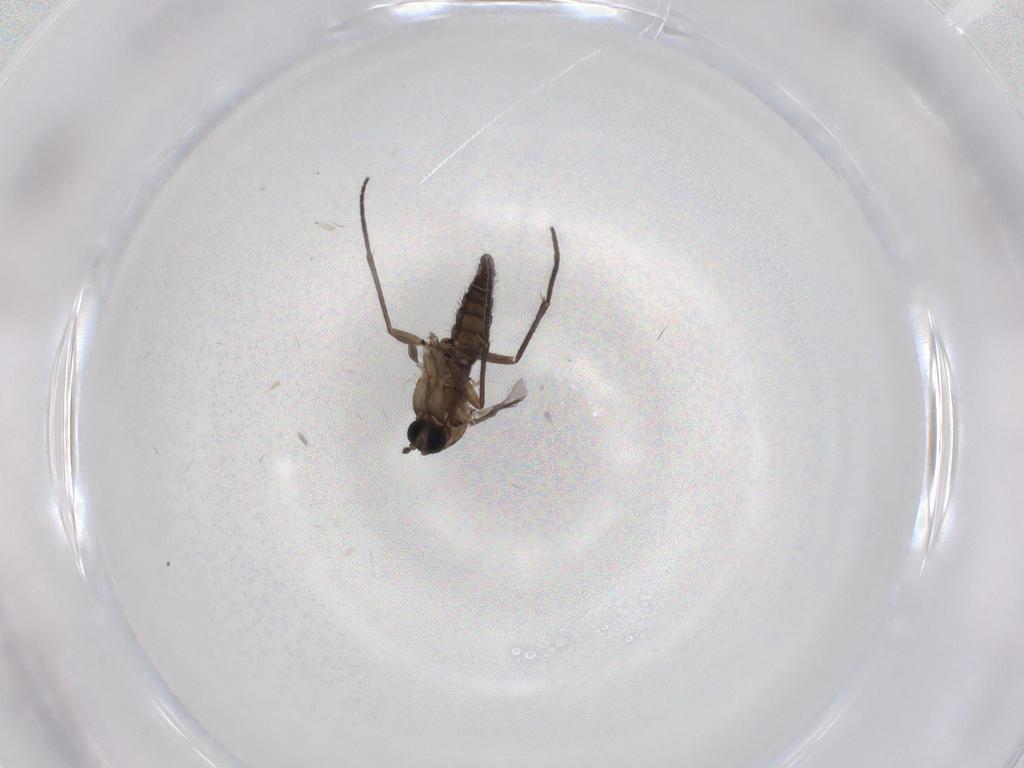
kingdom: Animalia
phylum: Arthropoda
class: Insecta
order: Diptera
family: Sciaridae
